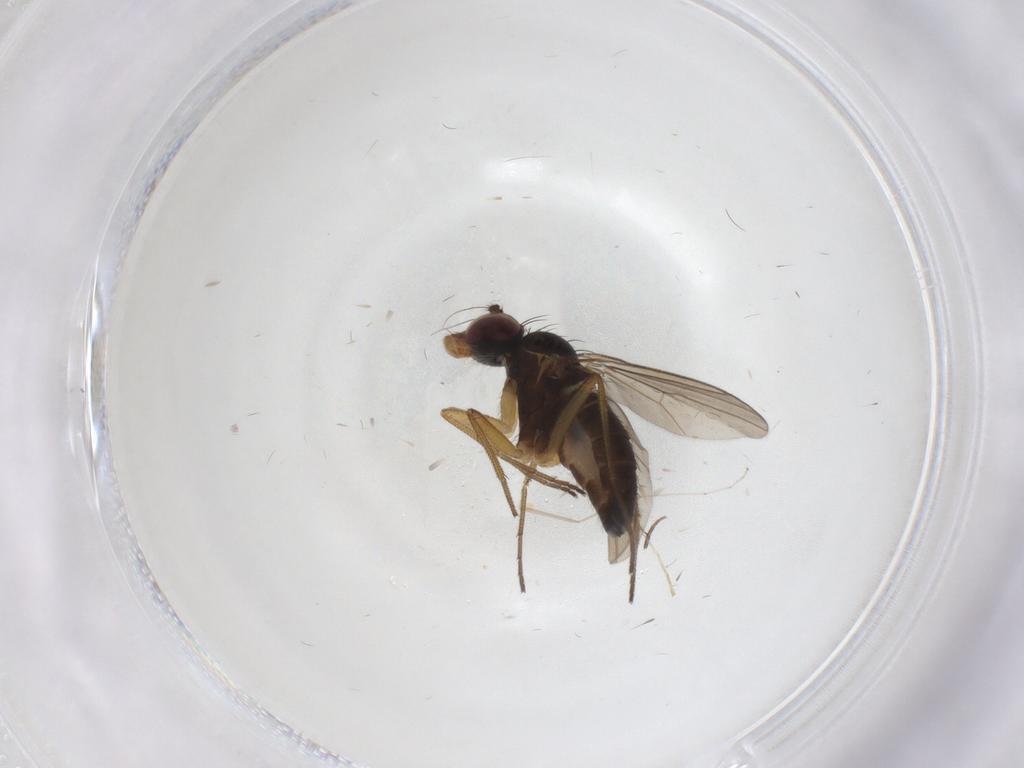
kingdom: Animalia
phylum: Arthropoda
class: Insecta
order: Diptera
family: Dolichopodidae
